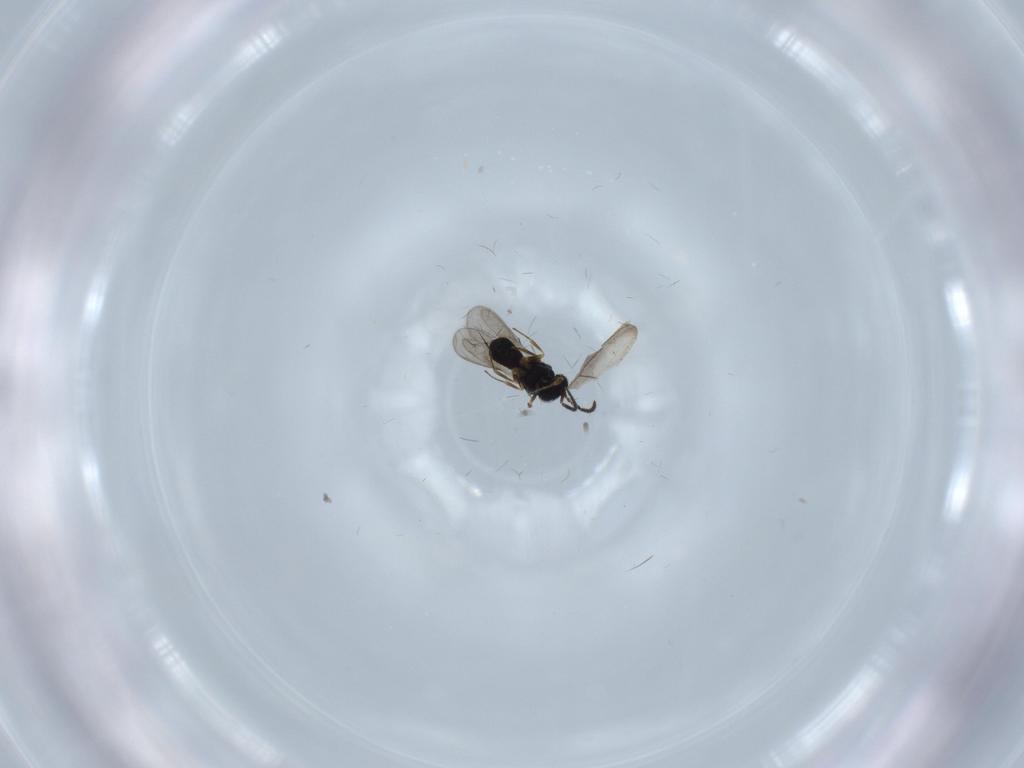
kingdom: Animalia
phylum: Arthropoda
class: Insecta
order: Hymenoptera
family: Scelionidae
